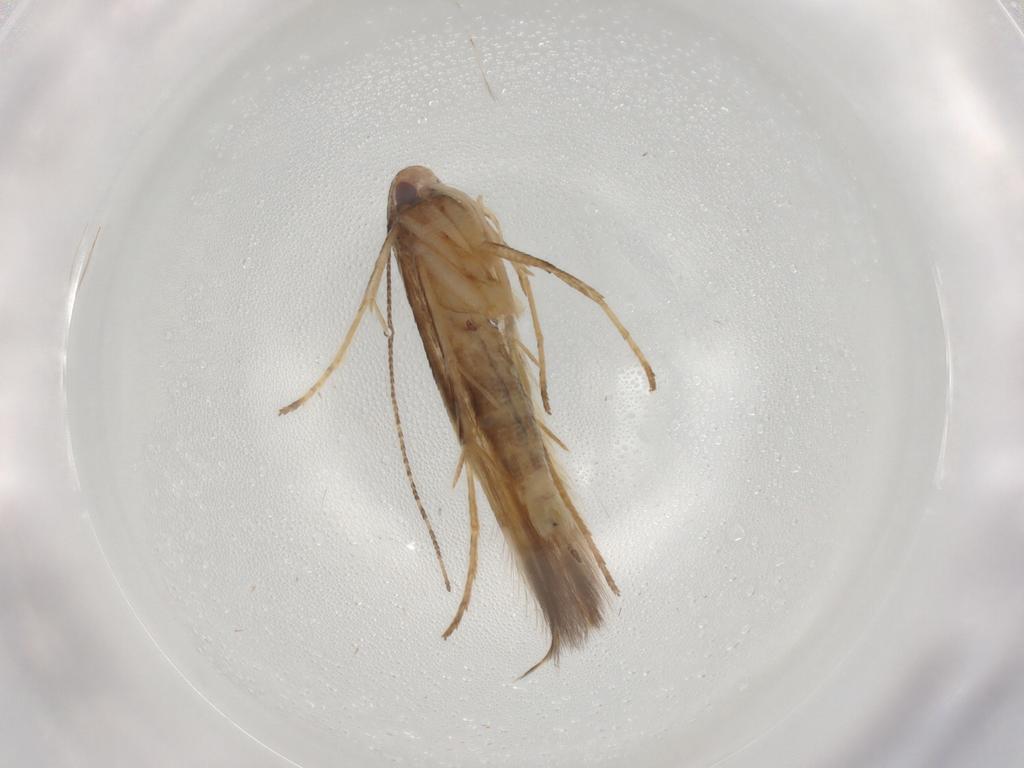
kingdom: Animalia
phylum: Arthropoda
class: Insecta
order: Lepidoptera
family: Cosmopterigidae
